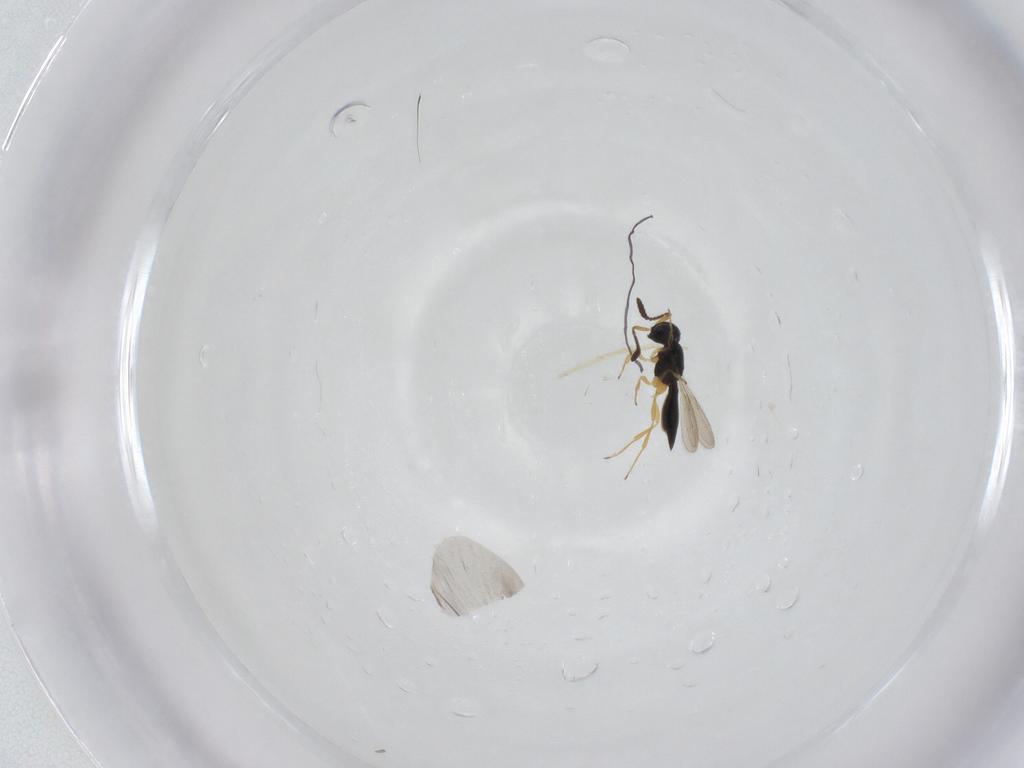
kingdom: Animalia
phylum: Arthropoda
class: Insecta
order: Hymenoptera
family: Scelionidae
